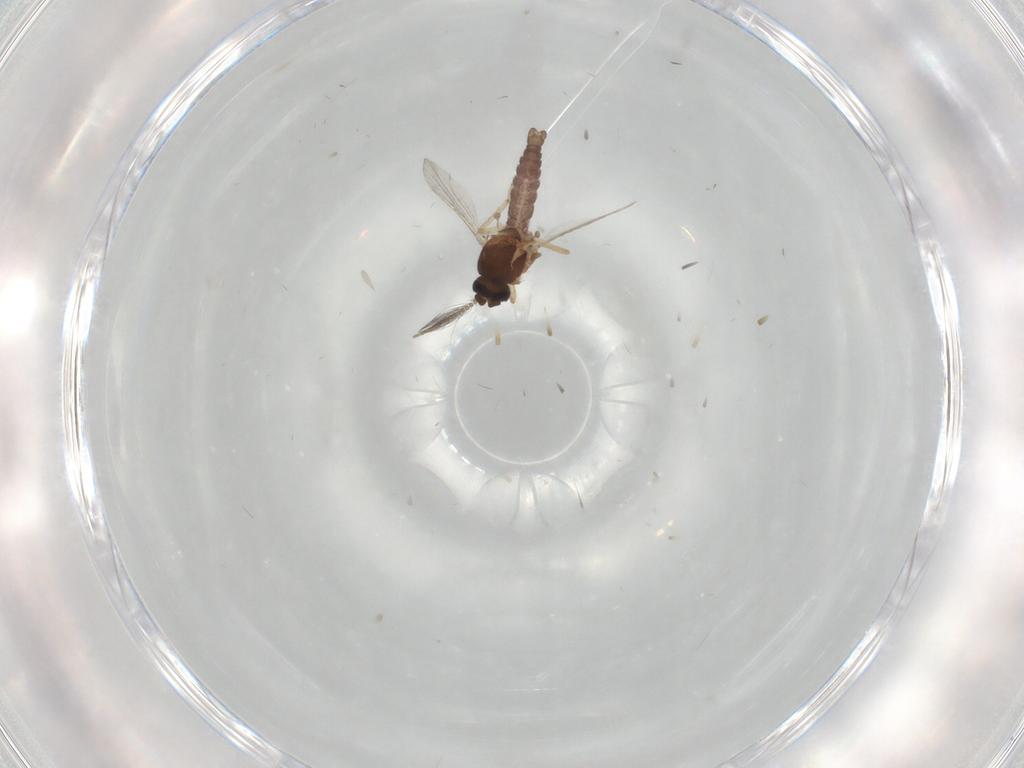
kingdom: Animalia
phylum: Arthropoda
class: Insecta
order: Diptera
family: Ceratopogonidae
